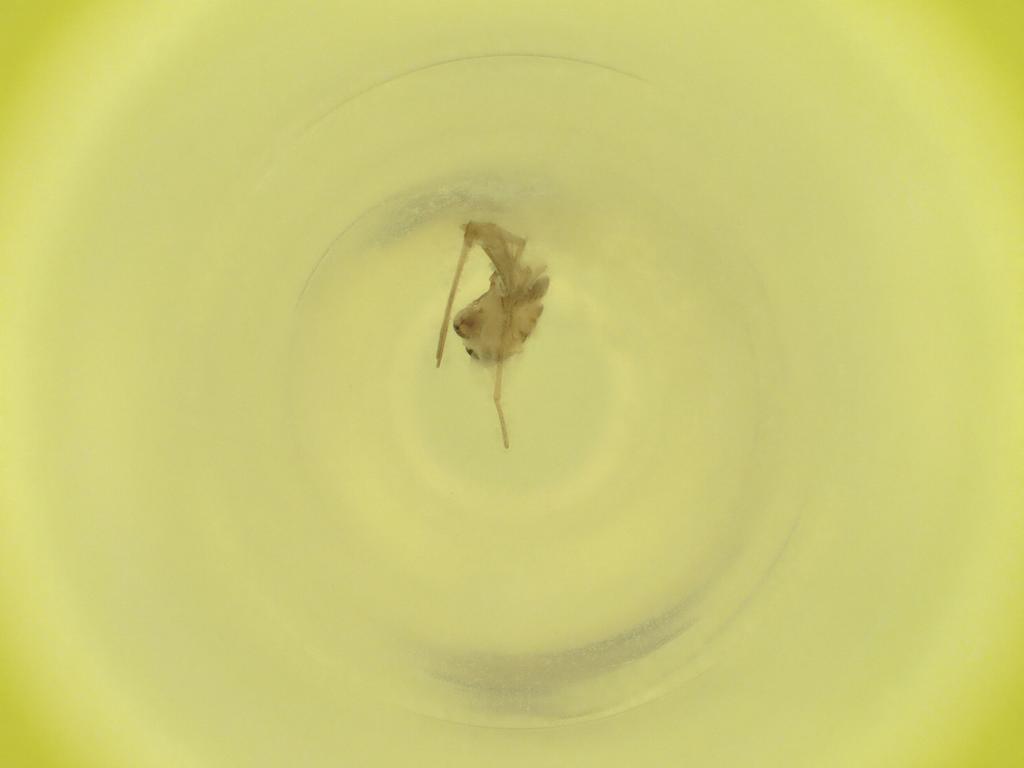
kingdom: Animalia
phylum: Arthropoda
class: Insecta
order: Diptera
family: Cecidomyiidae
